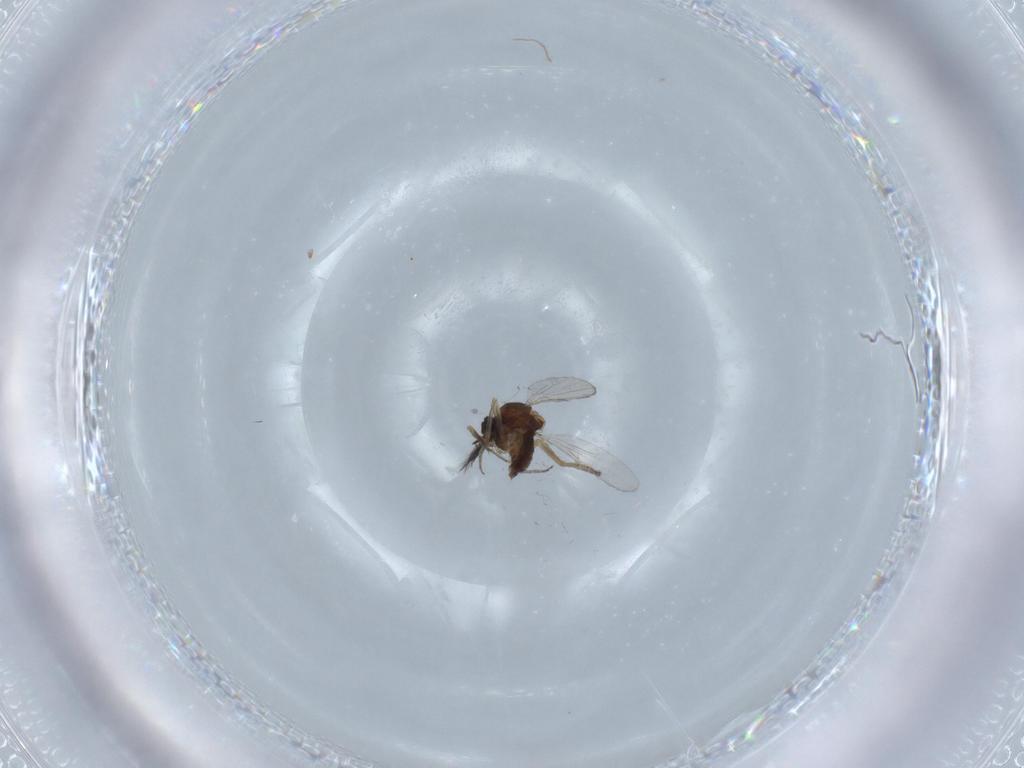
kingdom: Animalia
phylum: Arthropoda
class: Insecta
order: Diptera
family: Ceratopogonidae
